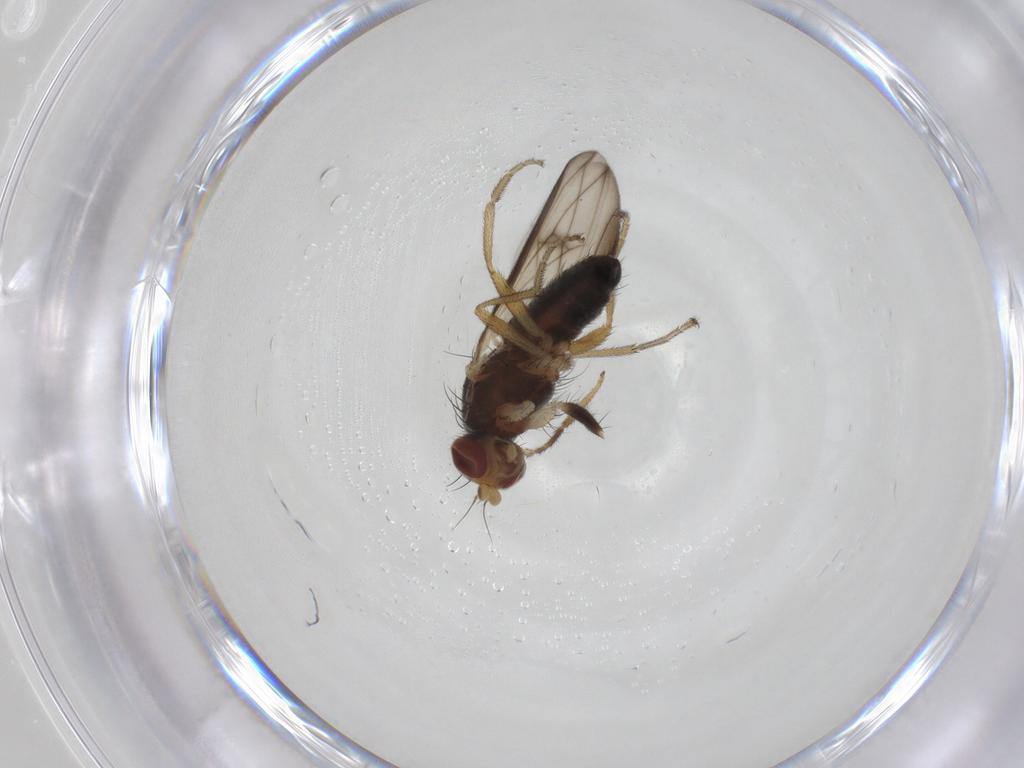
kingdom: Animalia
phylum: Arthropoda
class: Insecta
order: Diptera
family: Heleomyzidae
